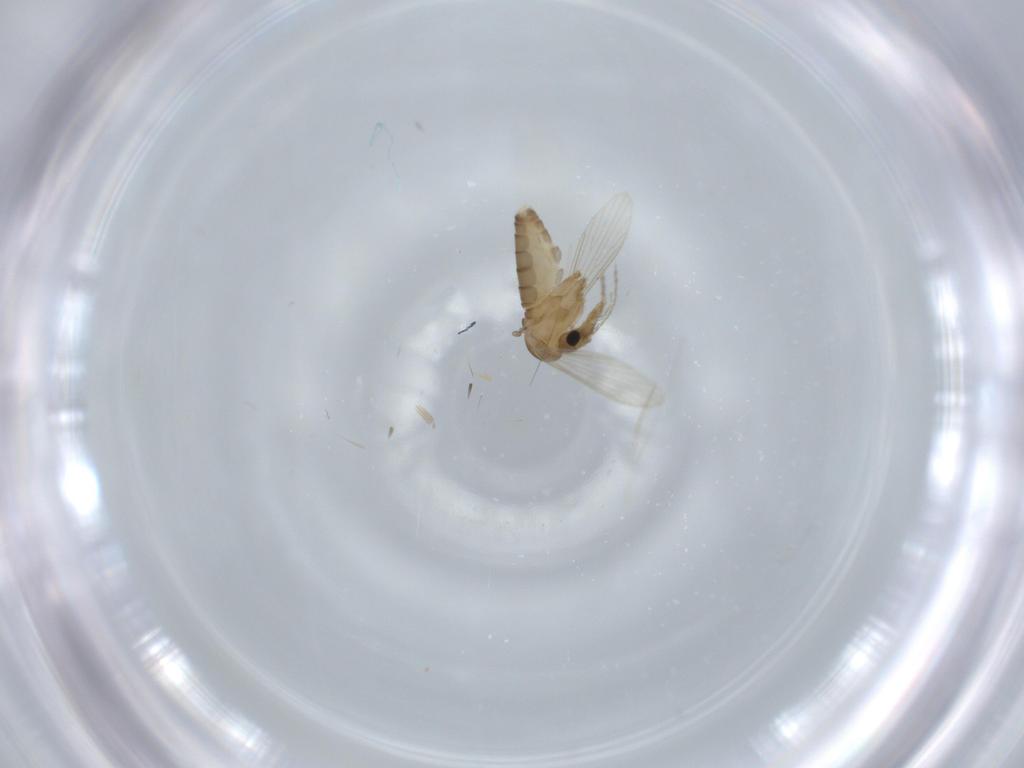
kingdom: Animalia
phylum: Arthropoda
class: Insecta
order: Diptera
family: Psychodidae
